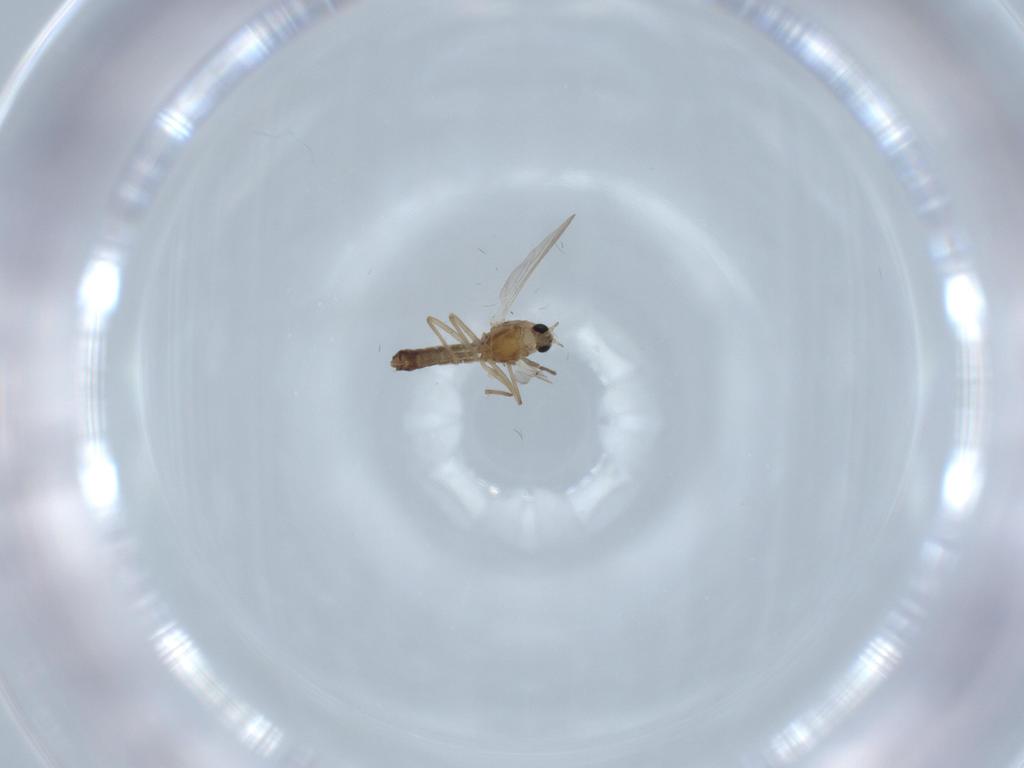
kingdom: Animalia
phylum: Arthropoda
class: Insecta
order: Diptera
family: Chironomidae
